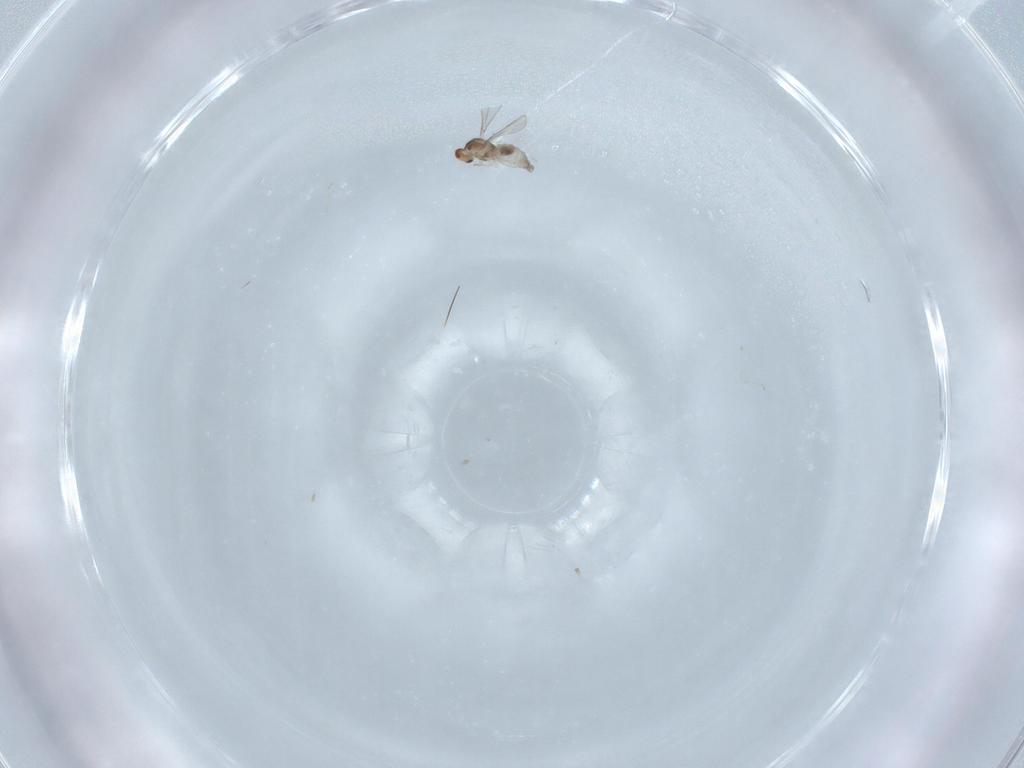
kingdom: Animalia
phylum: Arthropoda
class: Insecta
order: Diptera
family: Cecidomyiidae
